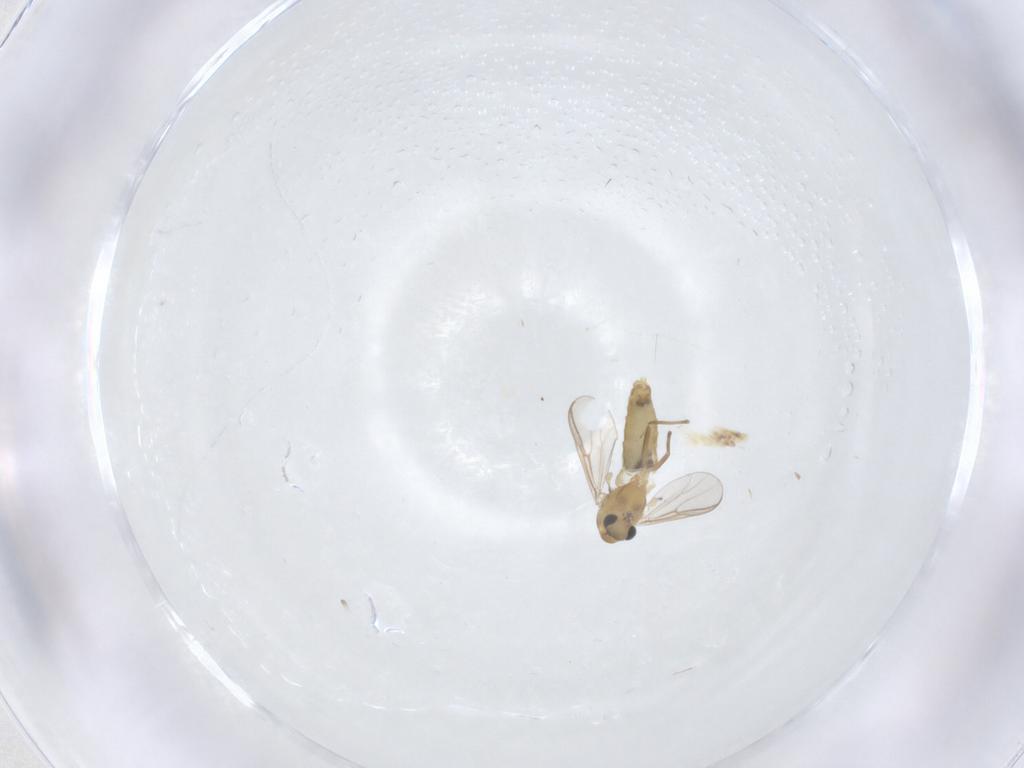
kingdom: Animalia
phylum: Arthropoda
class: Insecta
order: Diptera
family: Chironomidae
